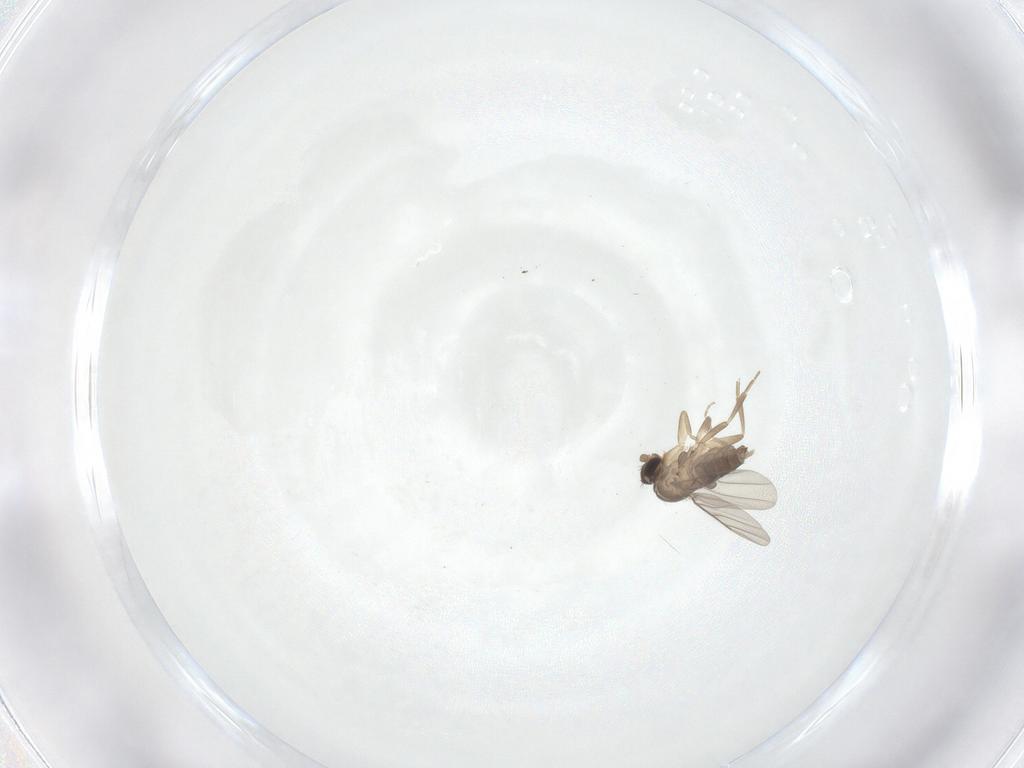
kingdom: Animalia
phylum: Arthropoda
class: Insecta
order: Diptera
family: Phoridae
